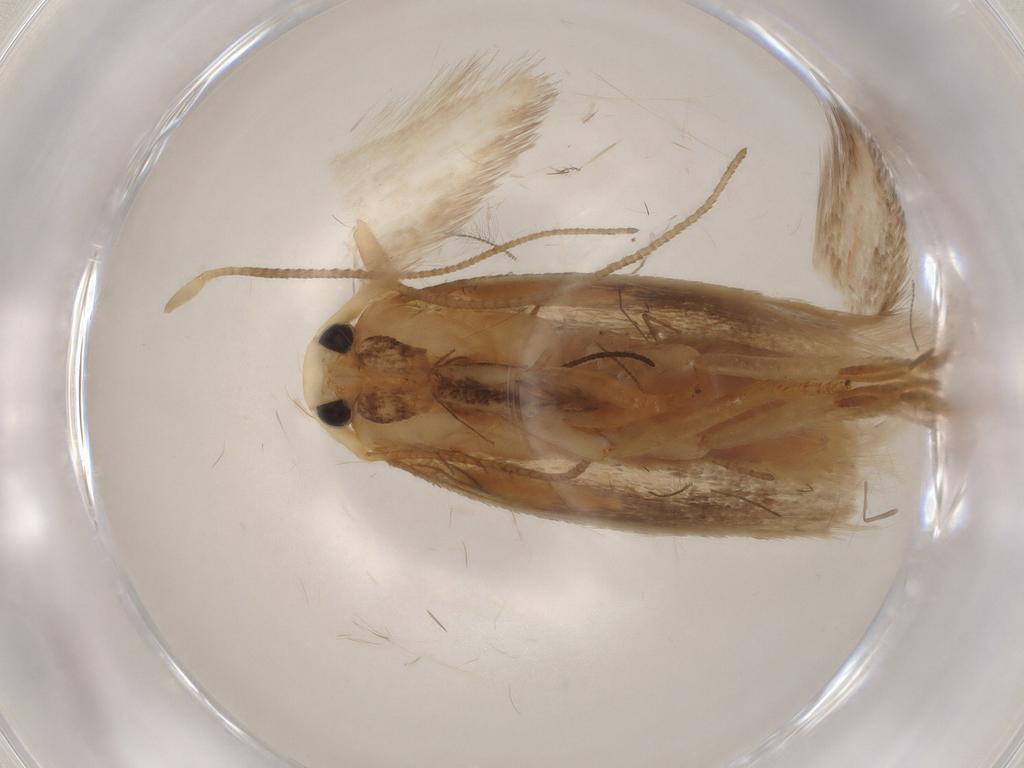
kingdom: Animalia
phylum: Arthropoda
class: Insecta
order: Lepidoptera
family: Geometridae
